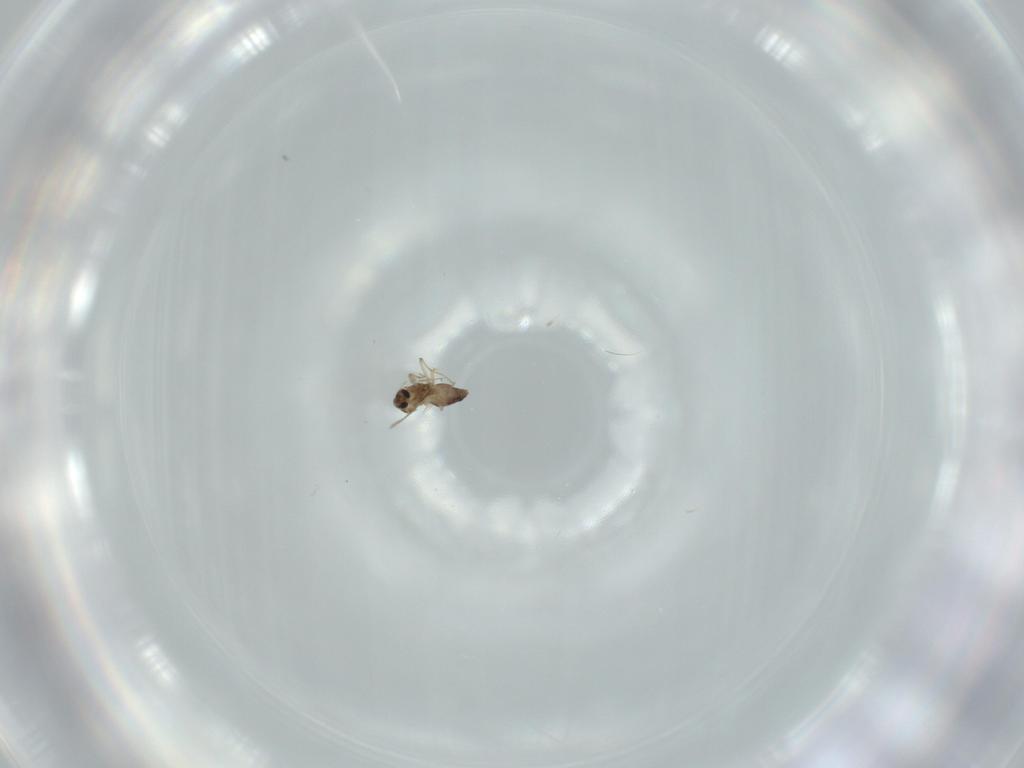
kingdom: Animalia
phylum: Arthropoda
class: Insecta
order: Diptera
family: Chironomidae
